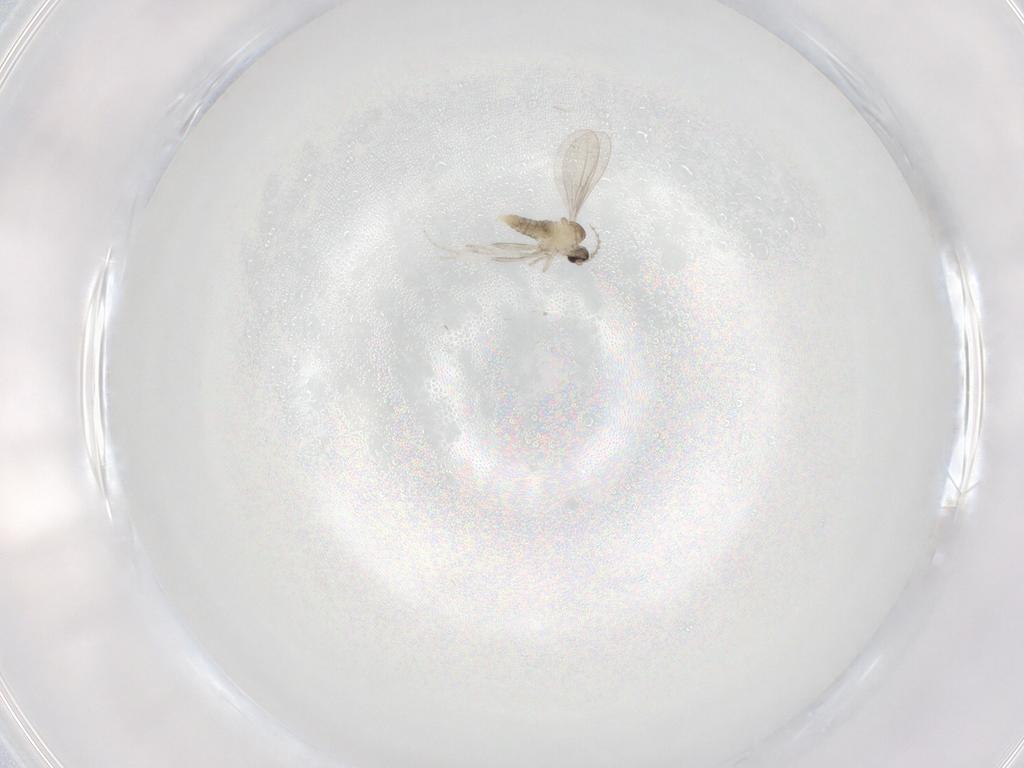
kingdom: Animalia
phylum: Arthropoda
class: Insecta
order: Diptera
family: Cecidomyiidae
